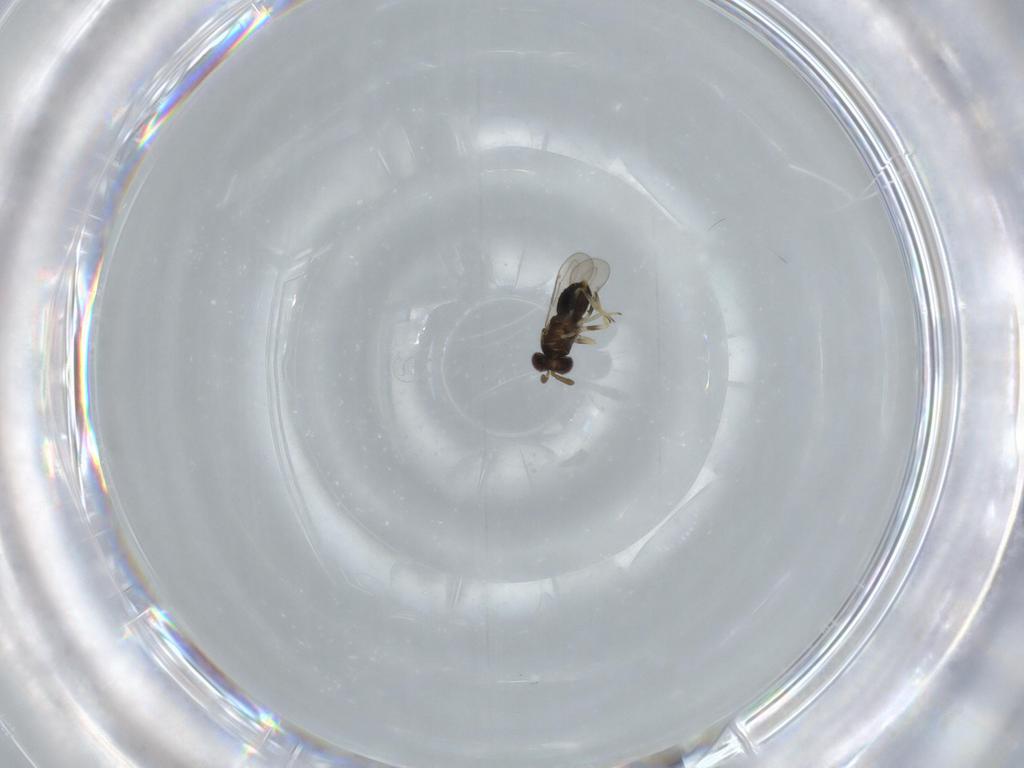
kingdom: Animalia
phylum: Arthropoda
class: Insecta
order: Hymenoptera
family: Aphelinidae
